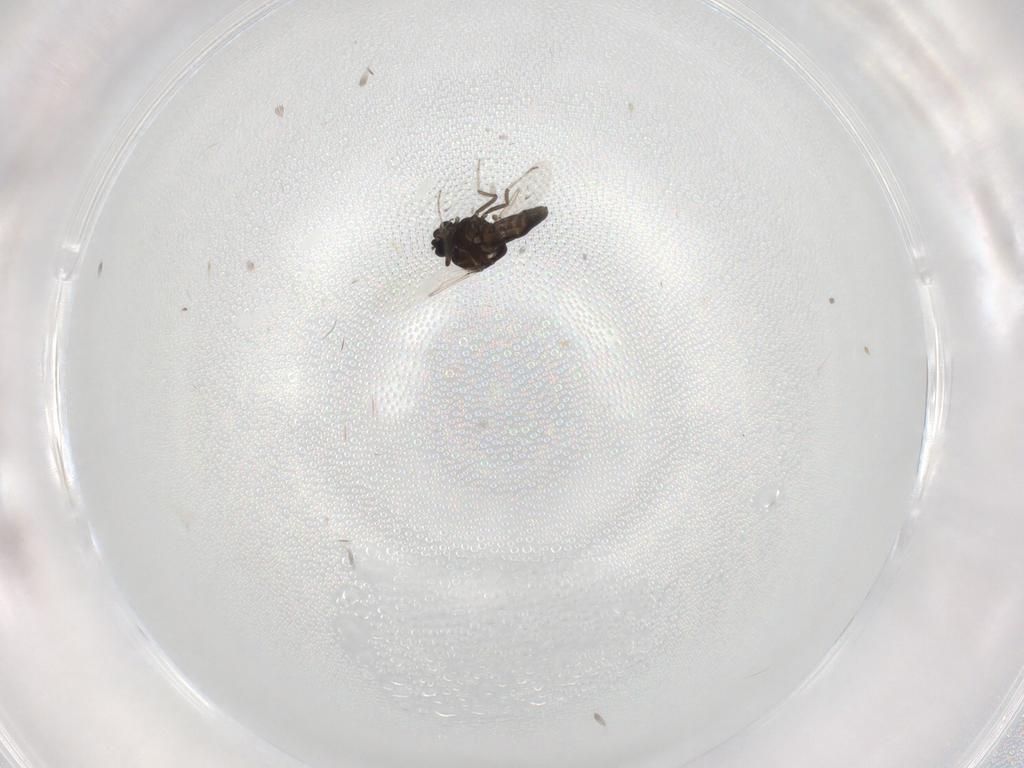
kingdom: Animalia
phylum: Arthropoda
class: Insecta
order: Diptera
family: Ceratopogonidae
